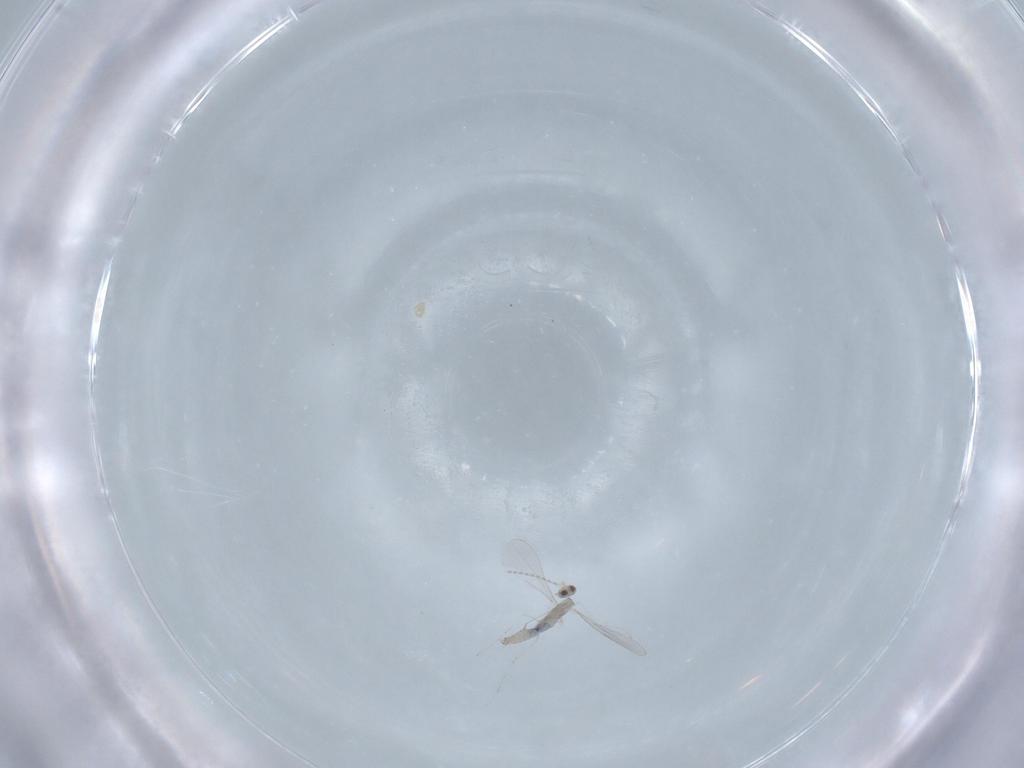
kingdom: Animalia
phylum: Arthropoda
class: Insecta
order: Diptera
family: Cecidomyiidae
